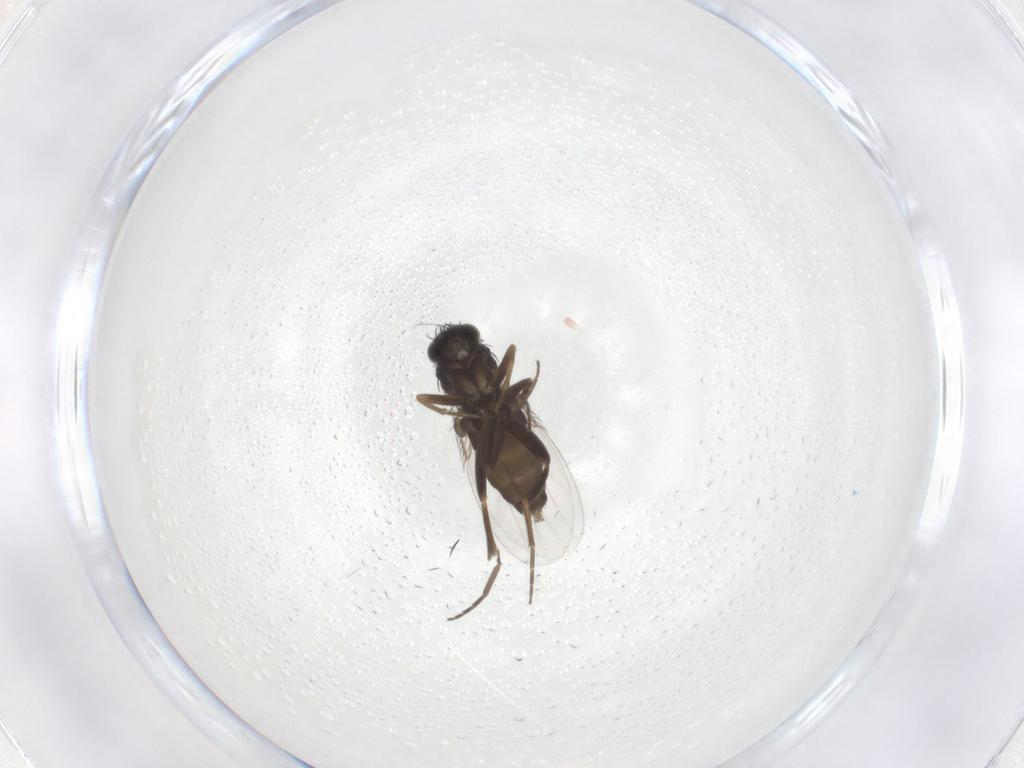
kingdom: Animalia
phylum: Arthropoda
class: Insecta
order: Diptera
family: Phoridae
